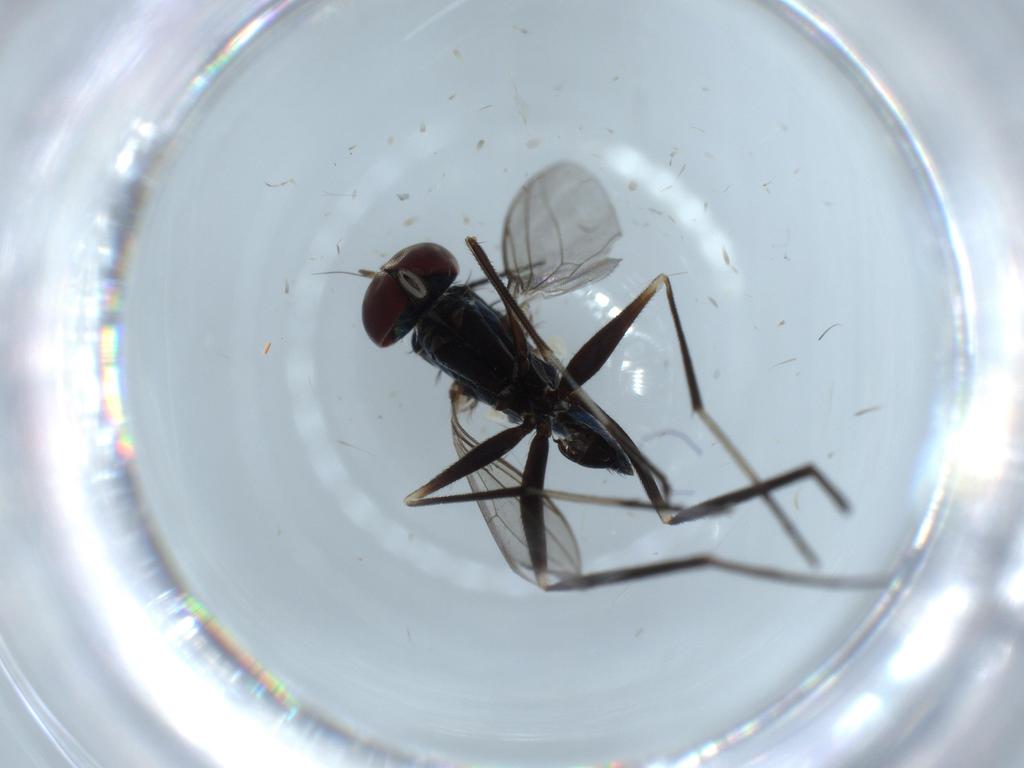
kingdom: Animalia
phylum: Arthropoda
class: Insecta
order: Diptera
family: Dolichopodidae
